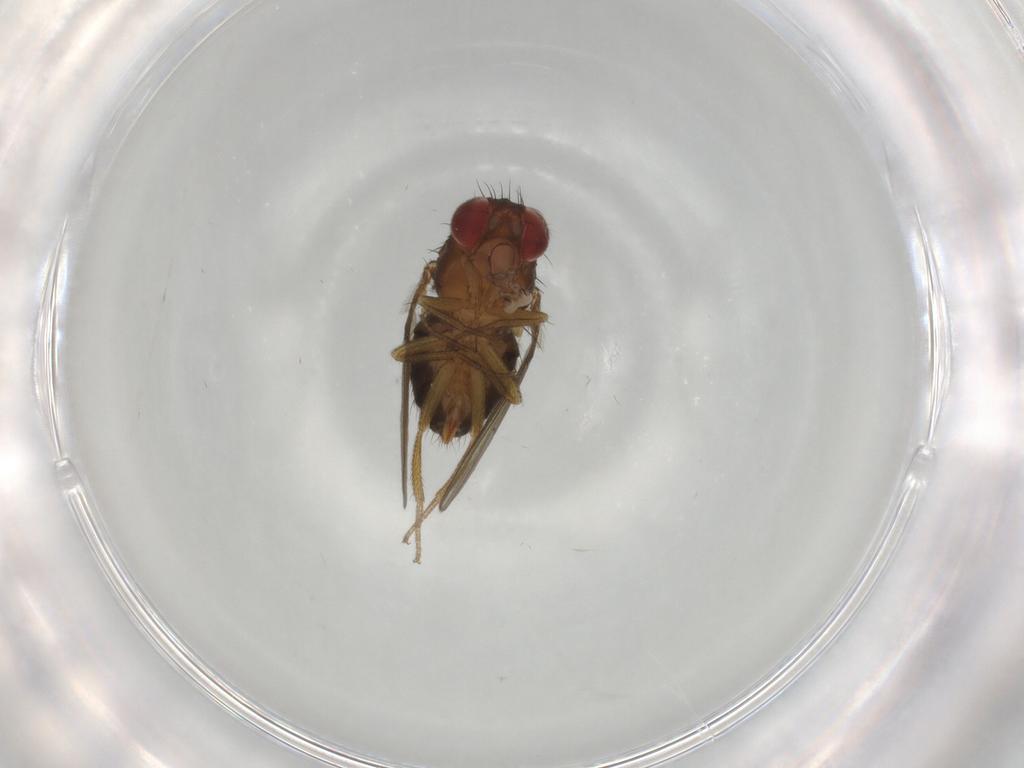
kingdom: Animalia
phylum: Arthropoda
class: Insecta
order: Diptera
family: Drosophilidae
